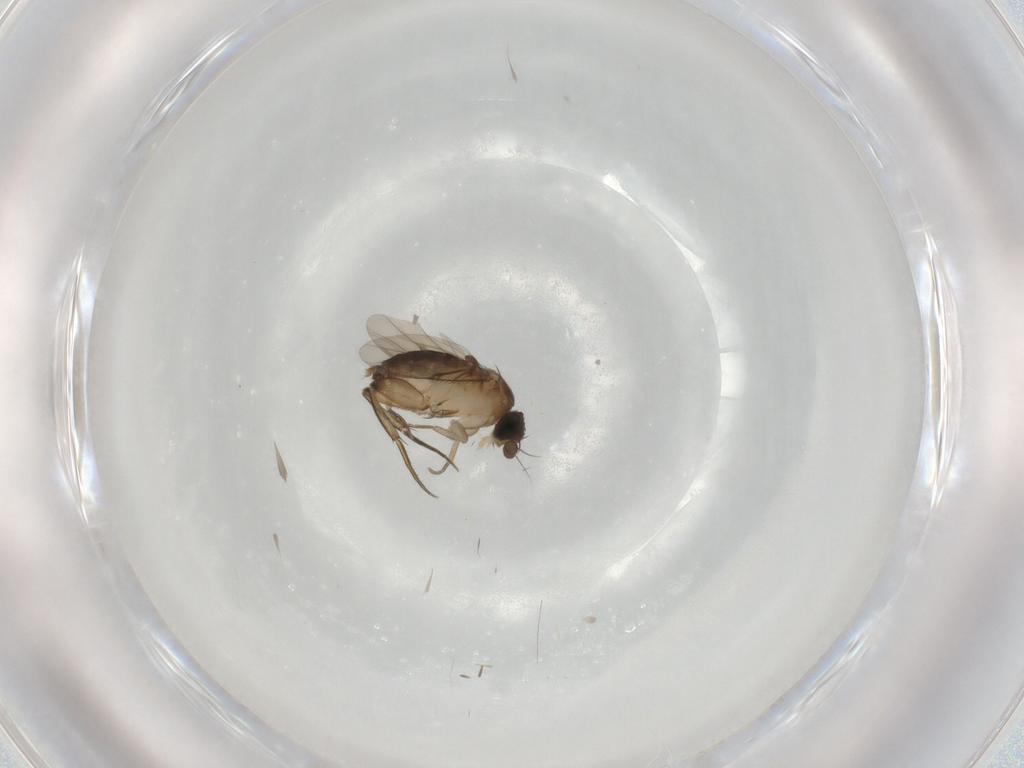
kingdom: Animalia
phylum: Arthropoda
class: Insecta
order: Diptera
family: Phoridae
